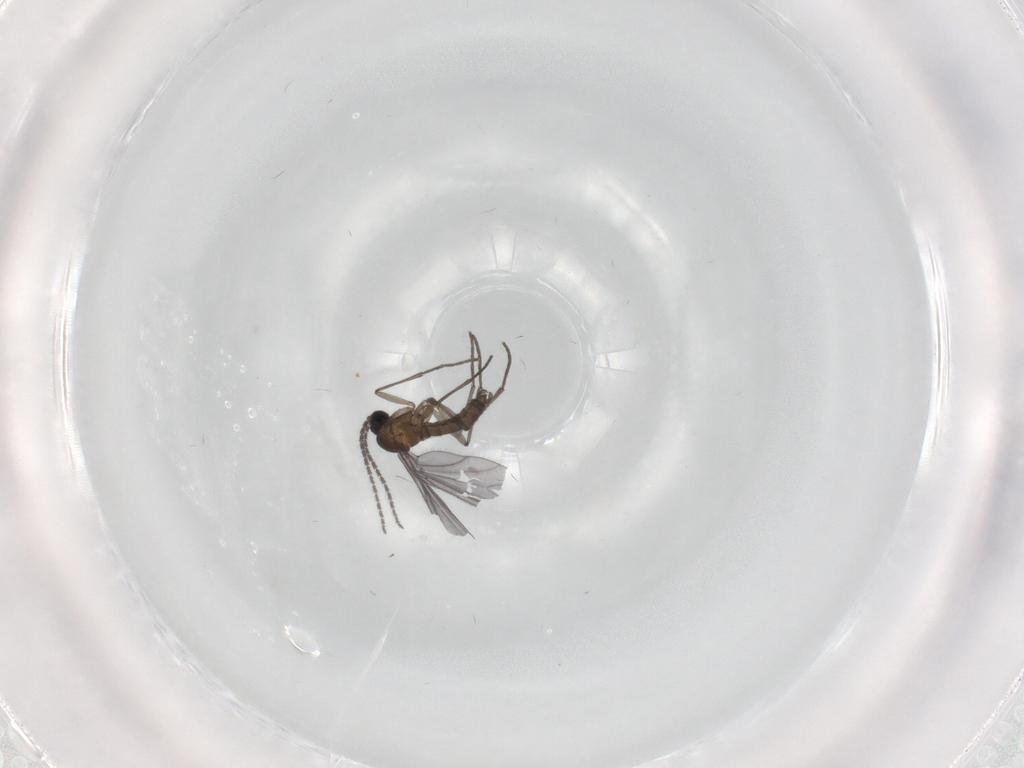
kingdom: Animalia
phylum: Arthropoda
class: Insecta
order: Diptera
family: Sciaridae
